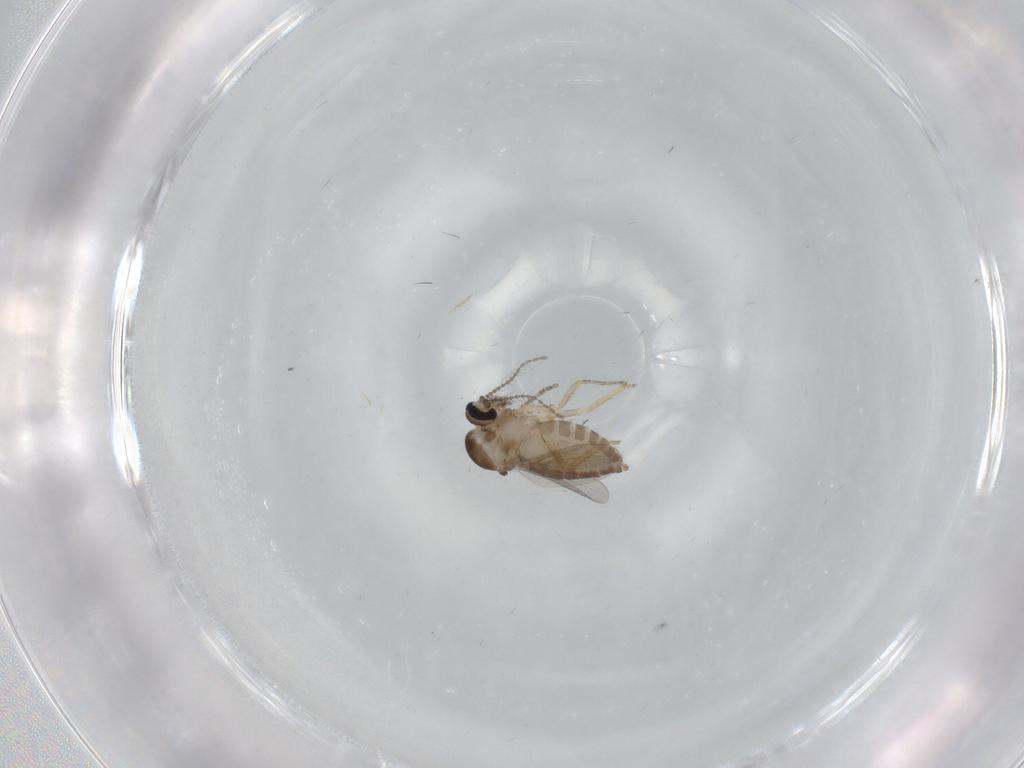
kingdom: Animalia
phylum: Arthropoda
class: Insecta
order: Diptera
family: Ceratopogonidae
